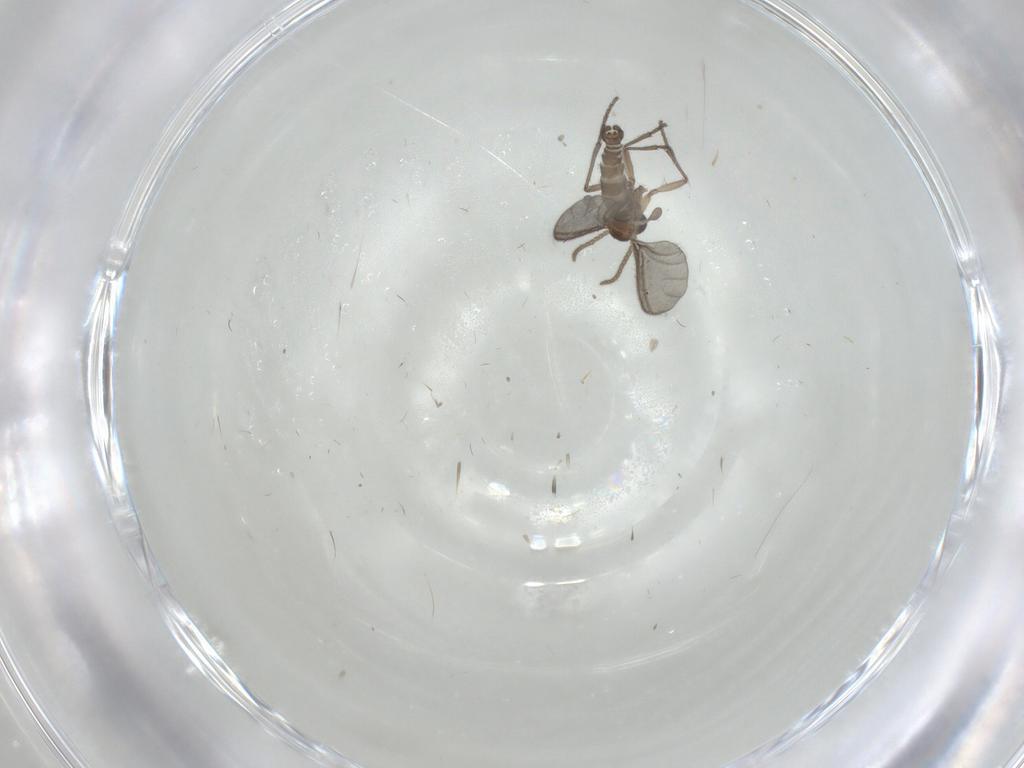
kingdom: Animalia
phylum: Arthropoda
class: Insecta
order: Diptera
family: Sciaridae
